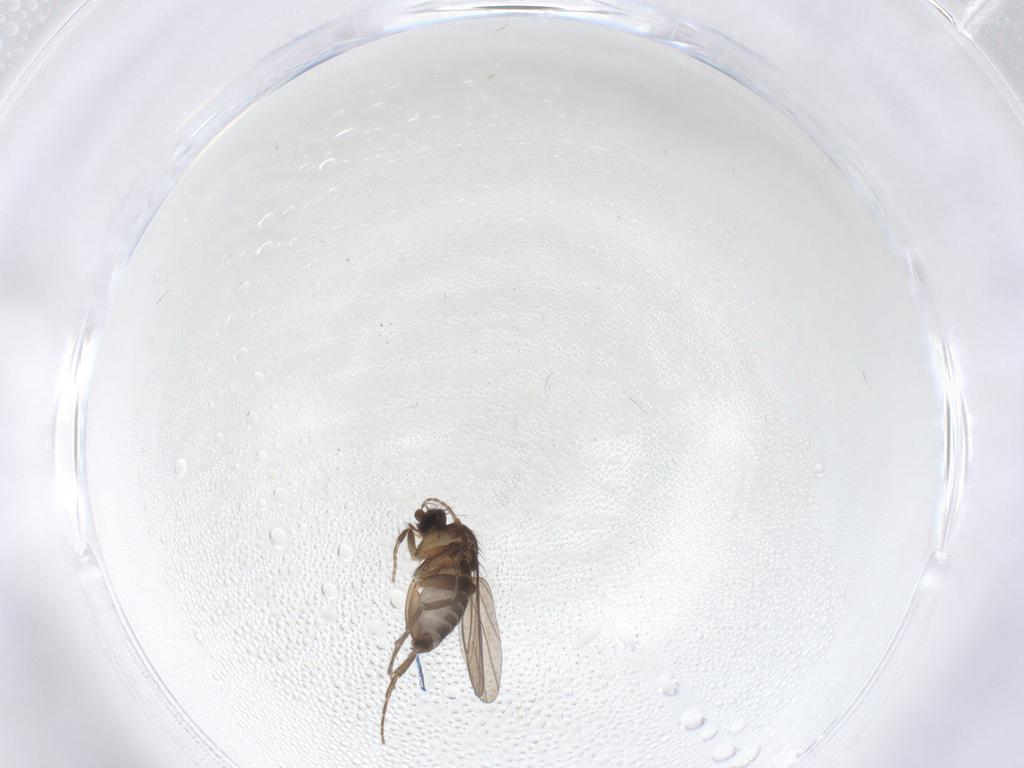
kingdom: Animalia
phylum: Arthropoda
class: Insecta
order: Diptera
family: Phoridae
